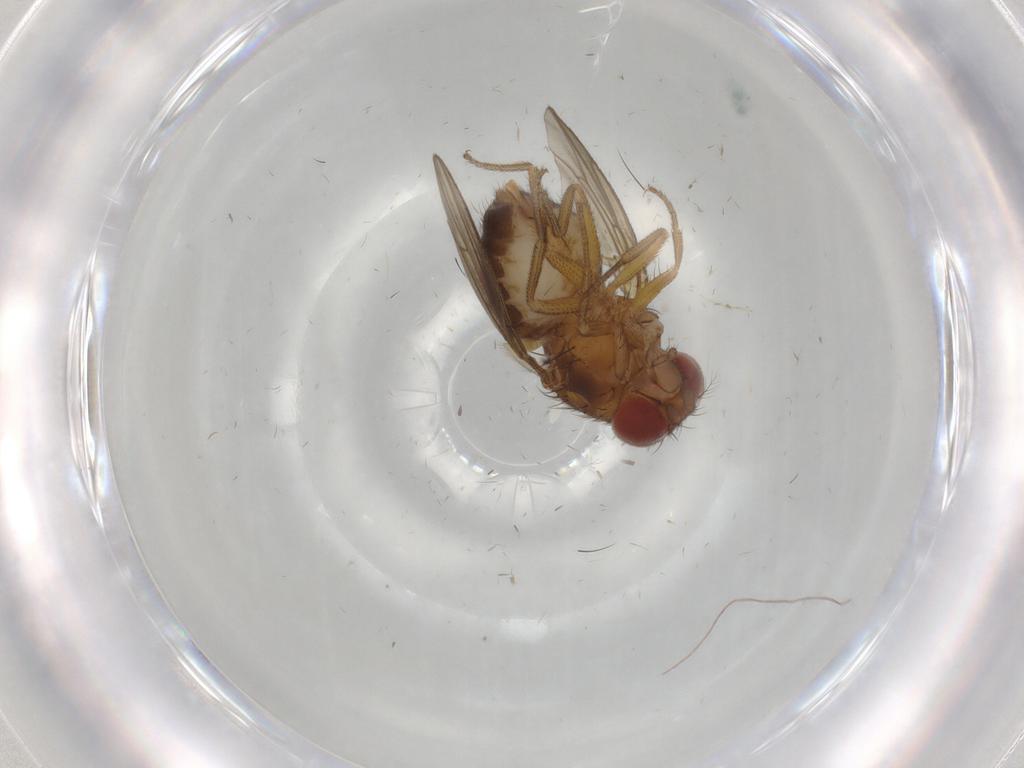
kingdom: Animalia
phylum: Arthropoda
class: Insecta
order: Diptera
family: Drosophilidae
